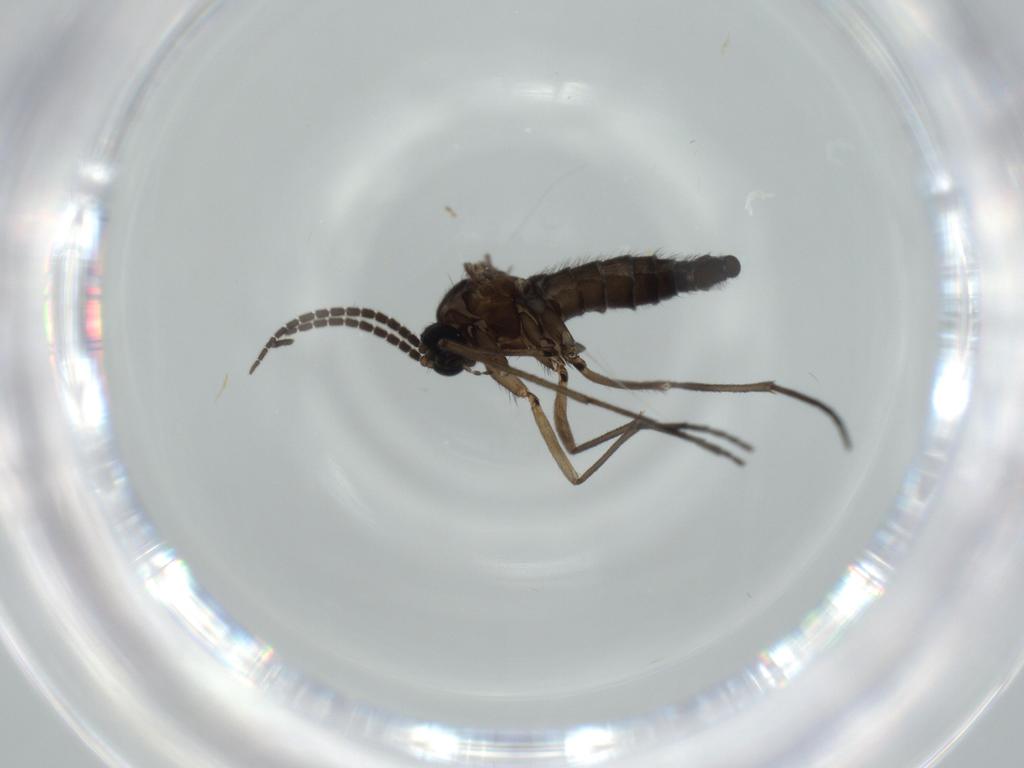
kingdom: Animalia
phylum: Arthropoda
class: Insecta
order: Diptera
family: Sciaridae
